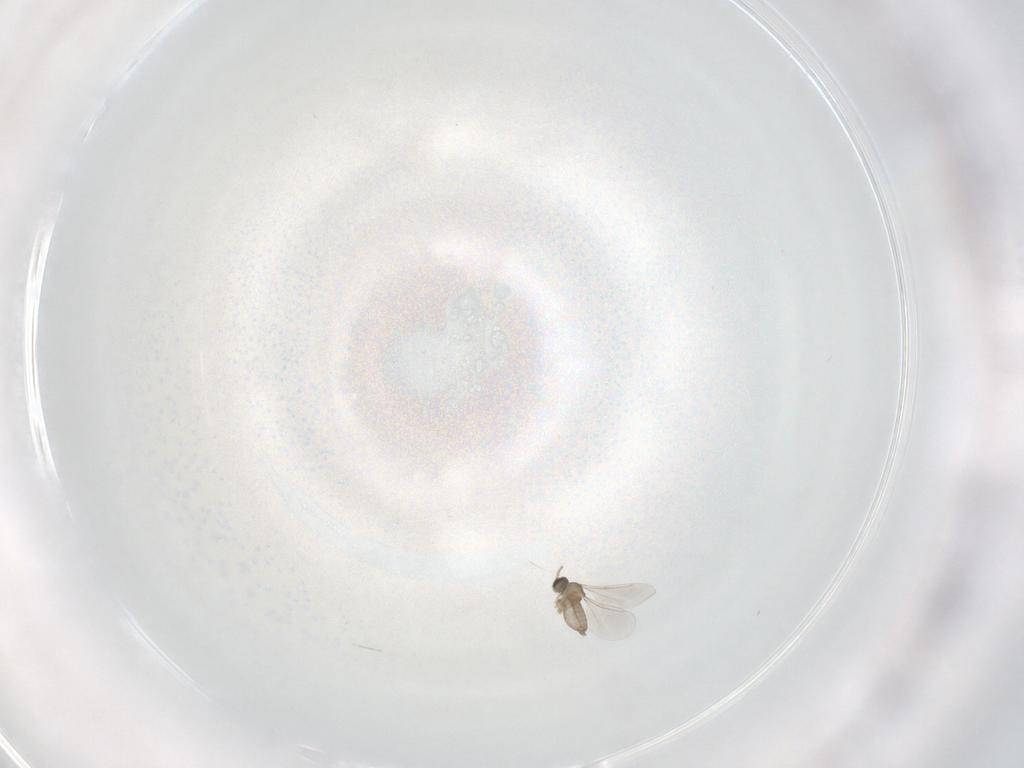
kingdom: Animalia
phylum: Arthropoda
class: Insecta
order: Diptera
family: Cecidomyiidae
